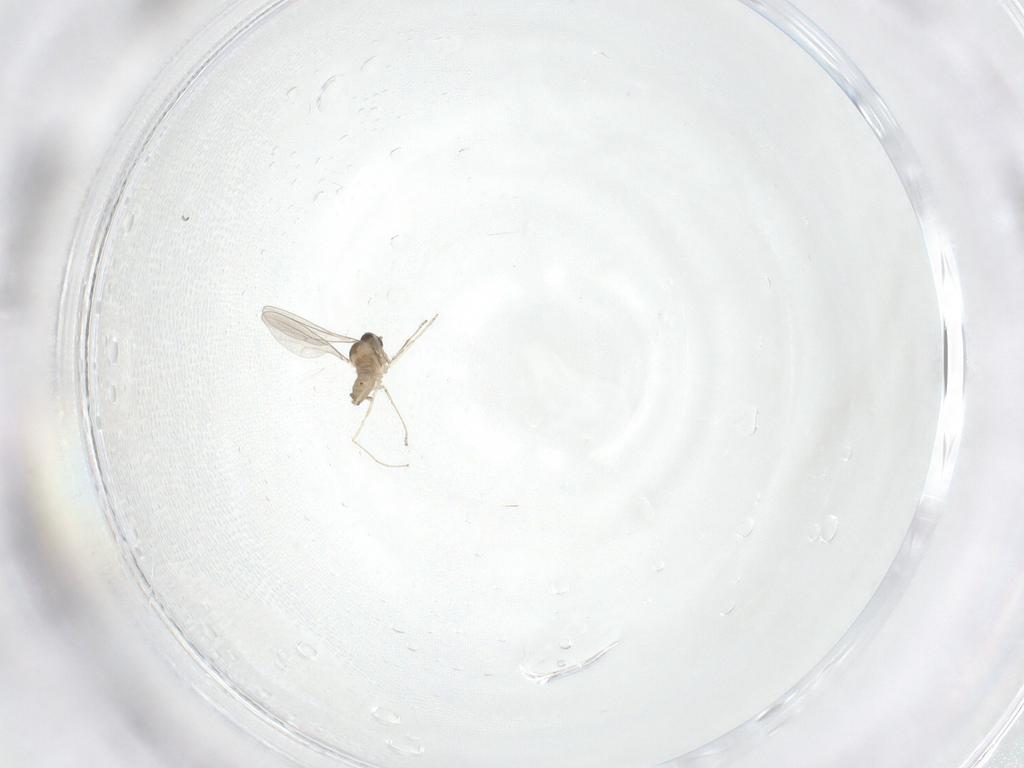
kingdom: Animalia
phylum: Arthropoda
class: Insecta
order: Diptera
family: Cecidomyiidae
